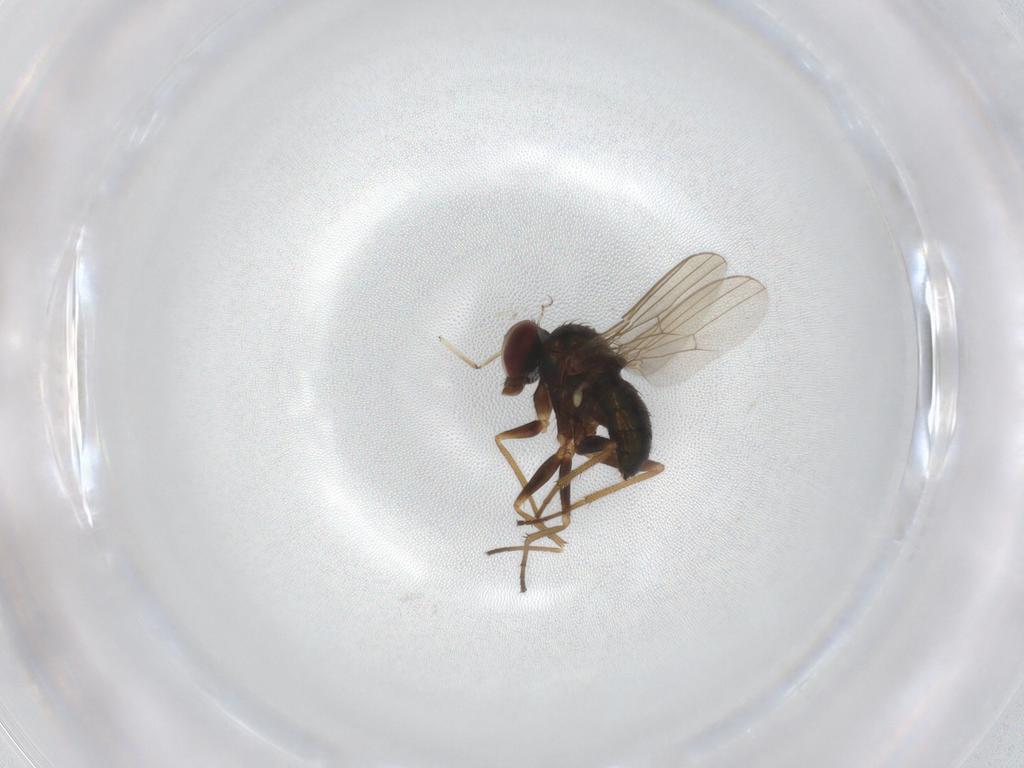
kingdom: Animalia
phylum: Arthropoda
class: Insecta
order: Diptera
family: Cecidomyiidae
